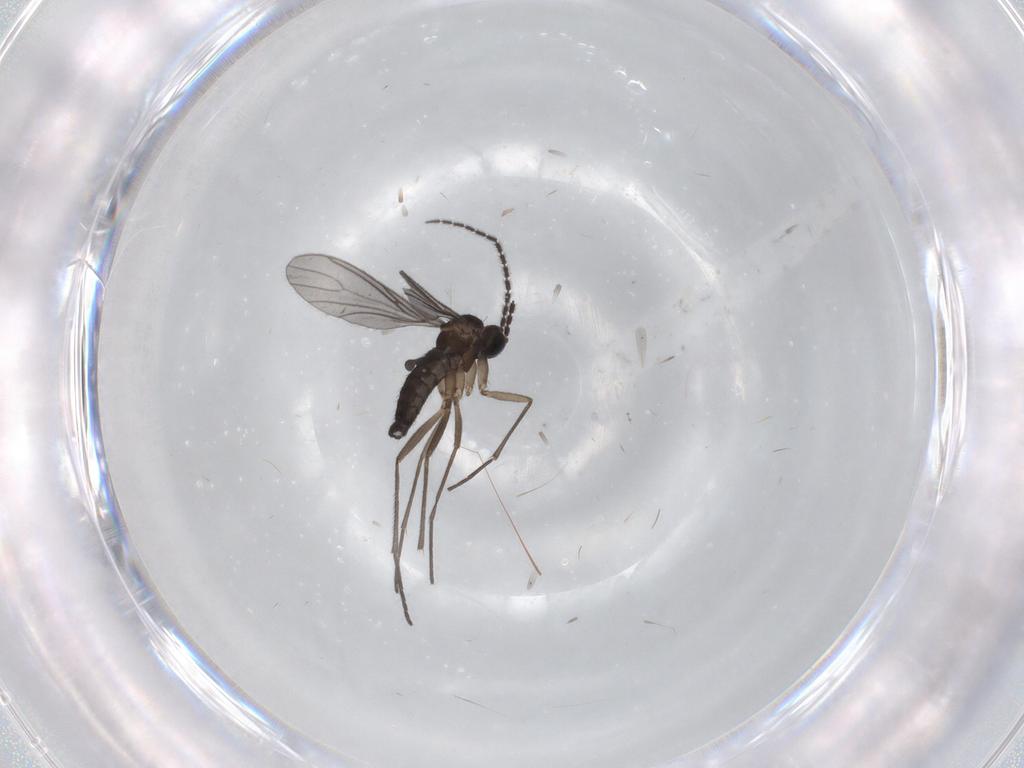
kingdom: Animalia
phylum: Arthropoda
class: Insecta
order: Diptera
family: Sciaridae
